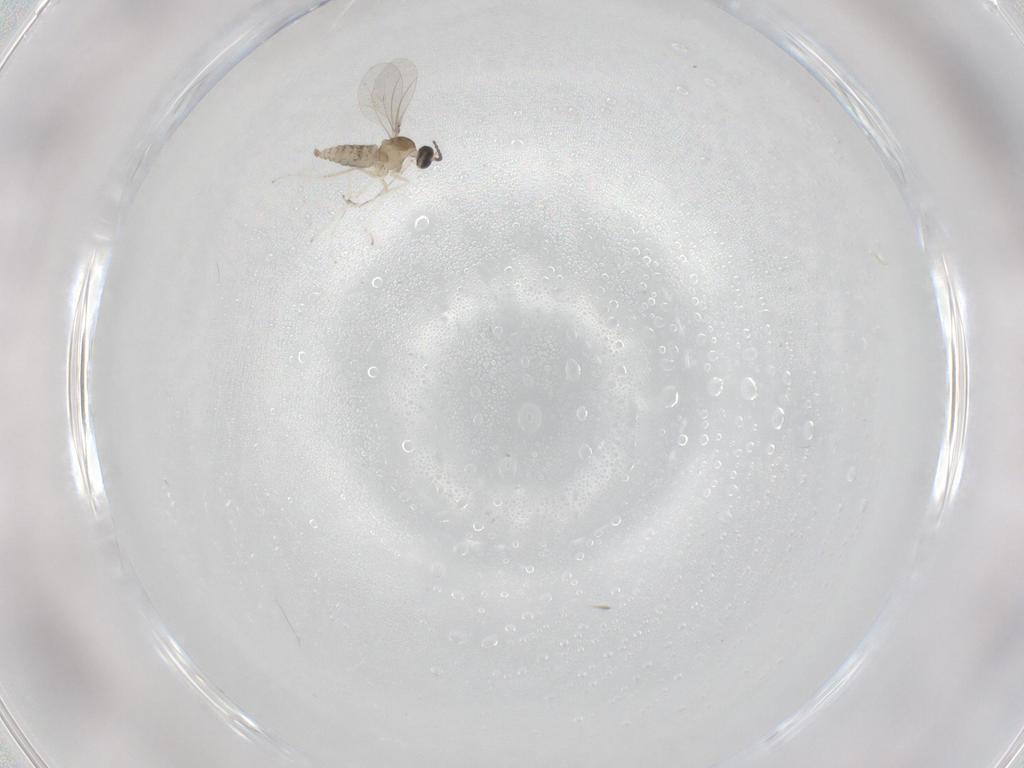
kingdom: Animalia
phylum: Arthropoda
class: Insecta
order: Diptera
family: Cecidomyiidae
